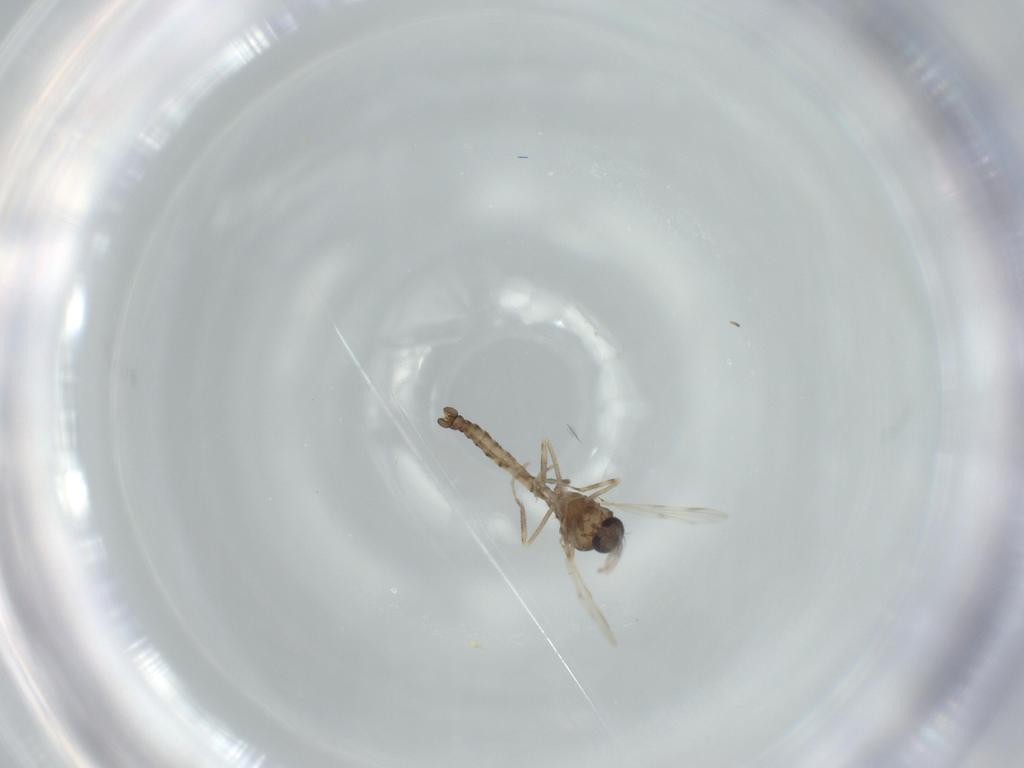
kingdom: Animalia
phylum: Arthropoda
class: Insecta
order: Diptera
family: Ceratopogonidae
